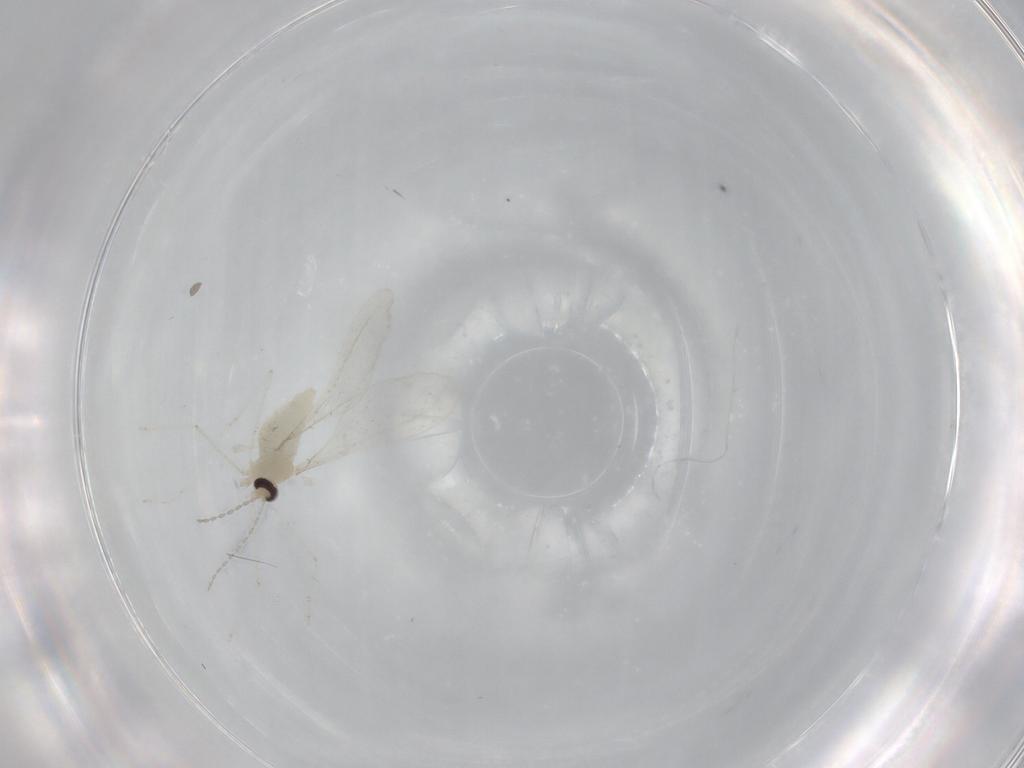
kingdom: Animalia
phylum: Arthropoda
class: Insecta
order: Diptera
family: Cecidomyiidae
